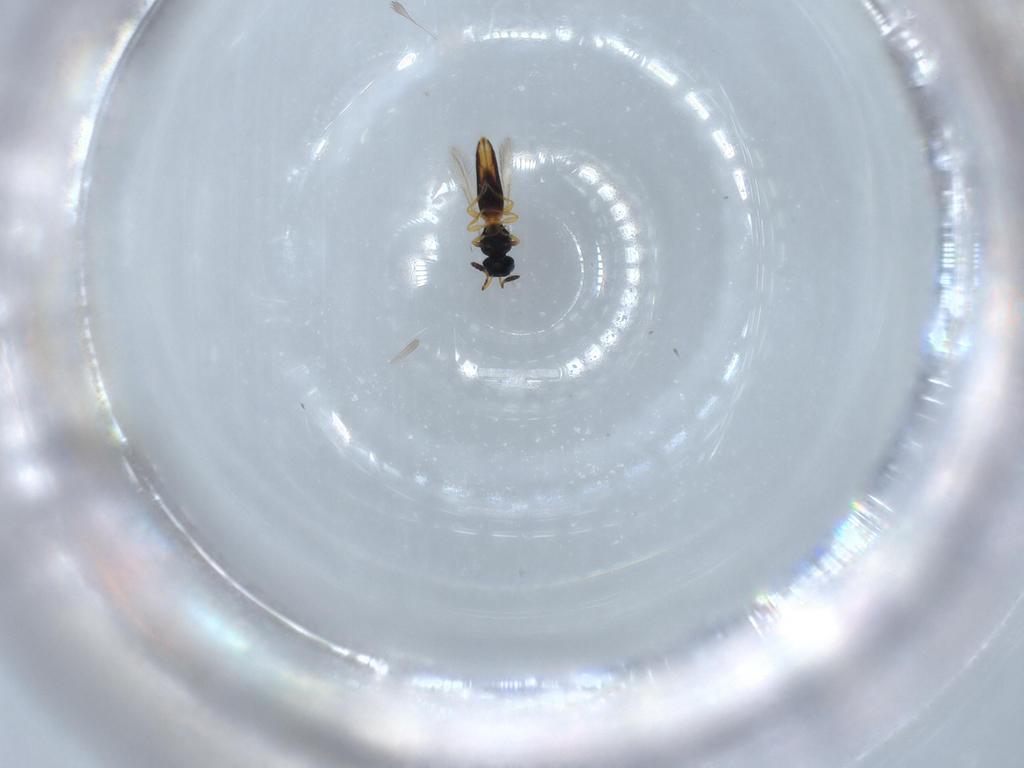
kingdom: Animalia
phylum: Arthropoda
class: Insecta
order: Hymenoptera
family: Scelionidae
